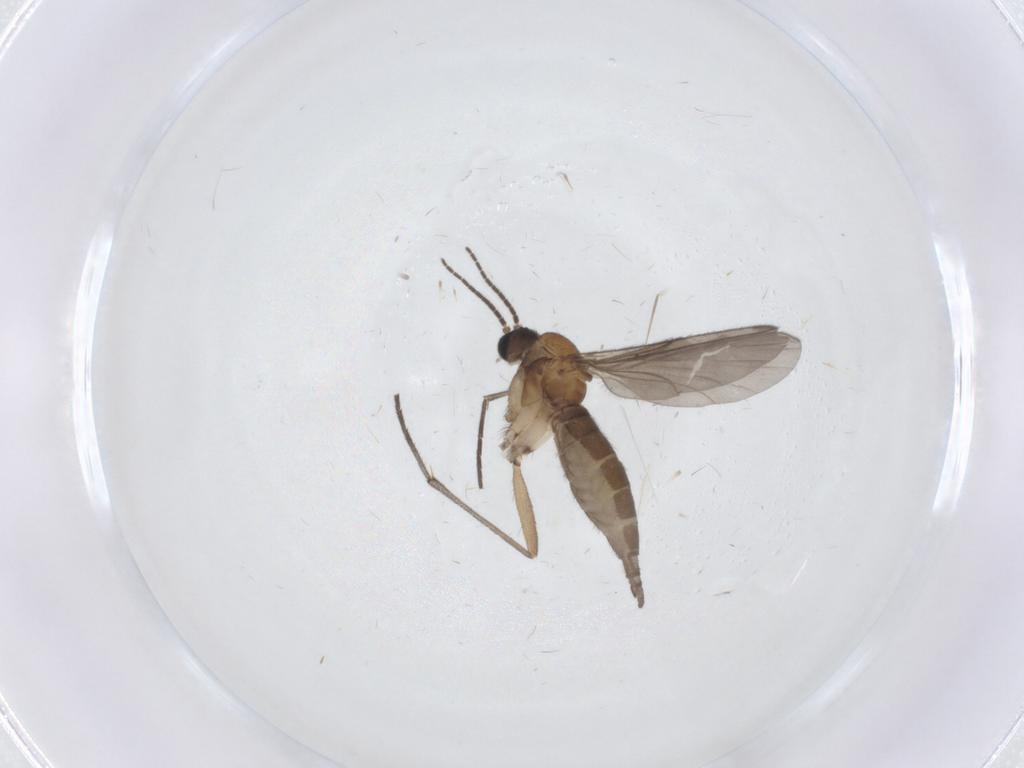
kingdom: Animalia
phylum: Arthropoda
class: Insecta
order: Diptera
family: Sciaridae
